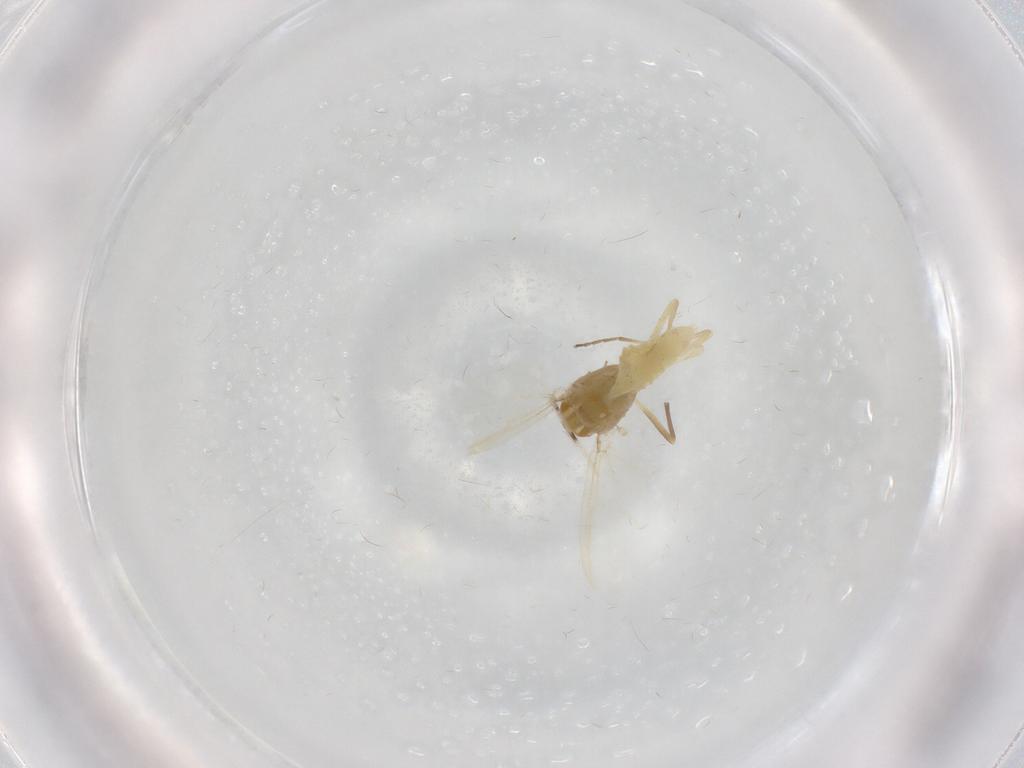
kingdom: Animalia
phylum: Arthropoda
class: Insecta
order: Diptera
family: Chironomidae
